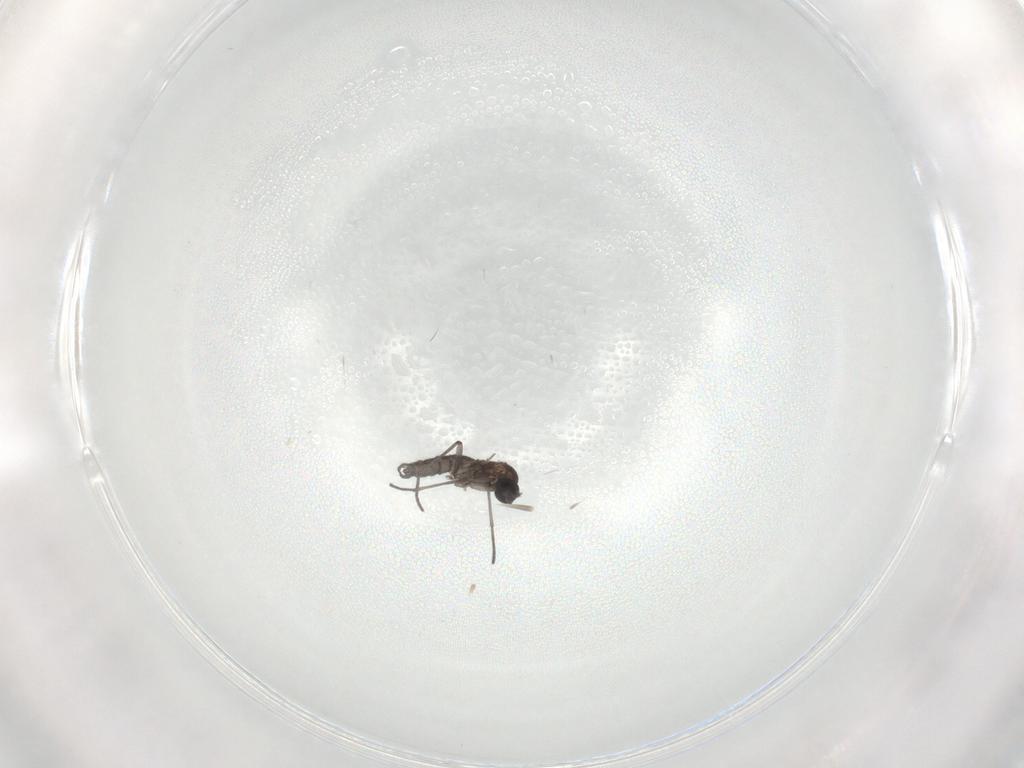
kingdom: Animalia
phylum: Arthropoda
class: Insecta
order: Diptera
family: Sciaridae
